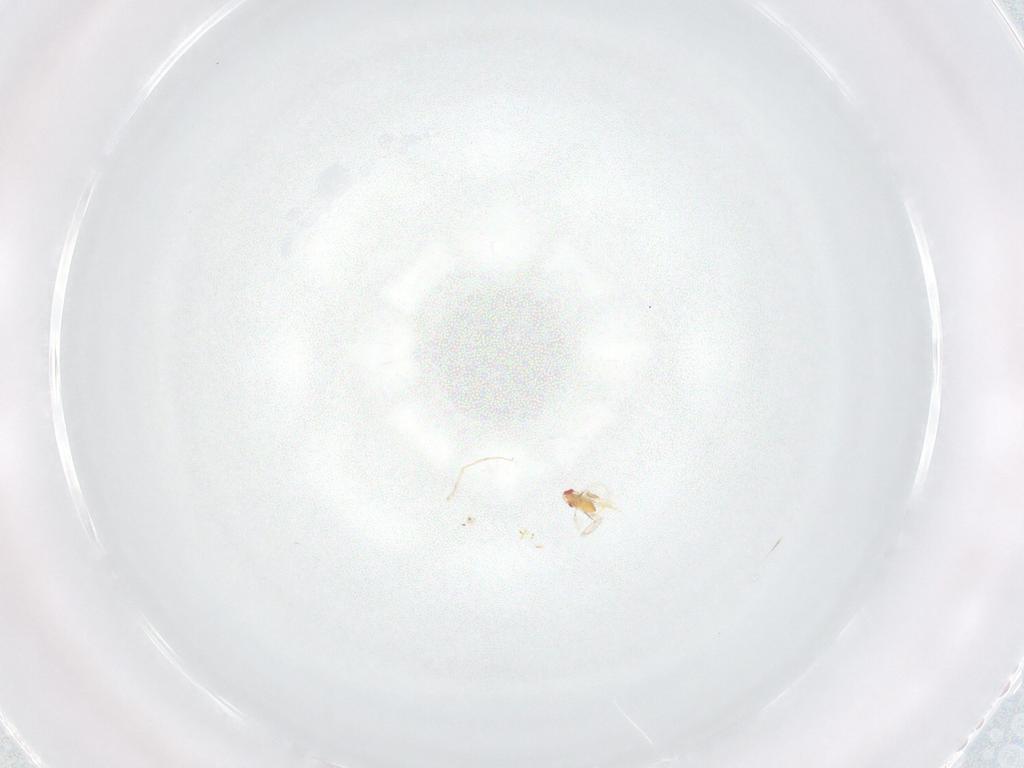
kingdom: Animalia
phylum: Arthropoda
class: Insecta
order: Hymenoptera
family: Trichogrammatidae
